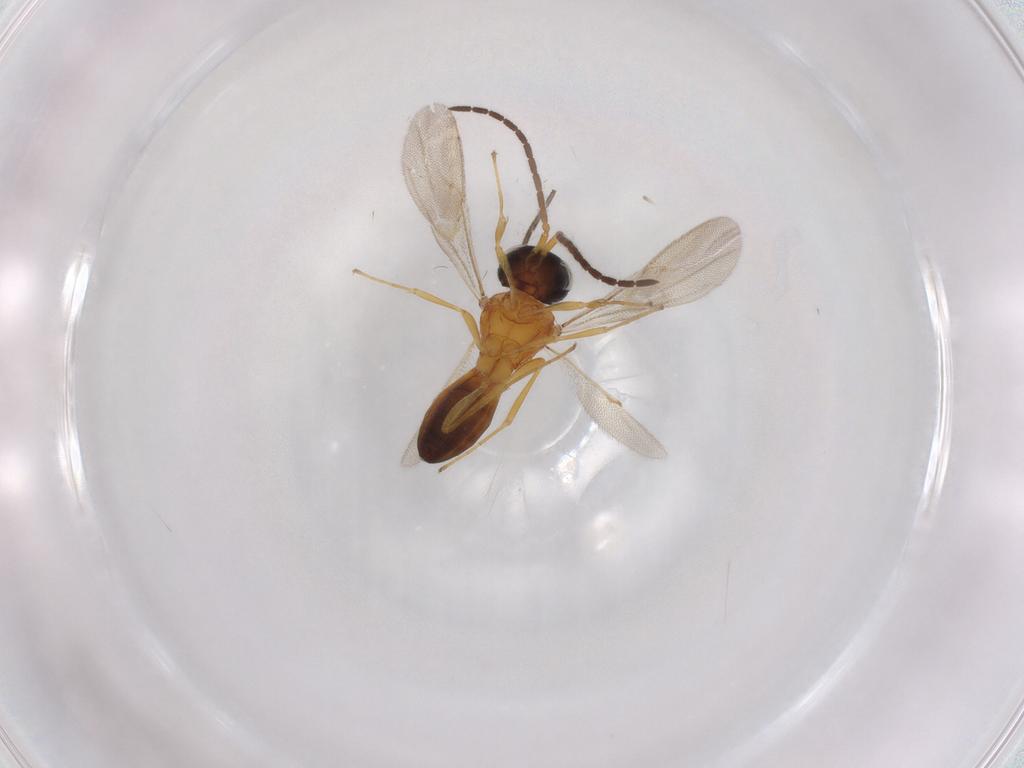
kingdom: Animalia
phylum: Arthropoda
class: Insecta
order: Hymenoptera
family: Scelionidae
